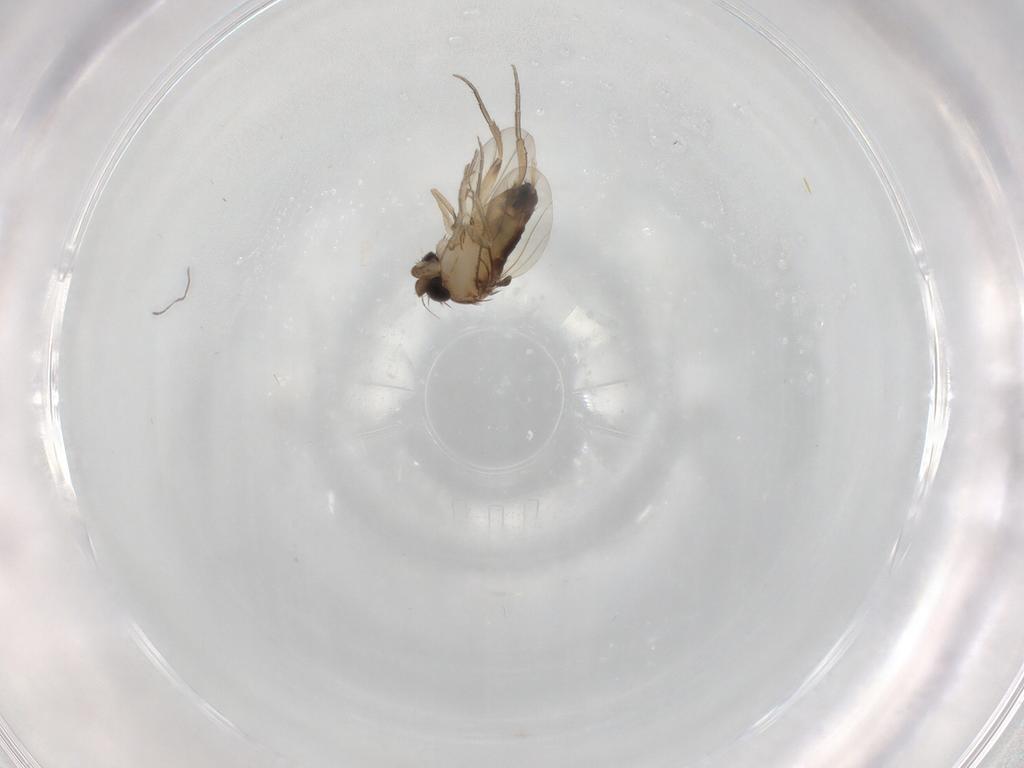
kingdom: Animalia
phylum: Arthropoda
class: Insecta
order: Diptera
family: Phoridae
